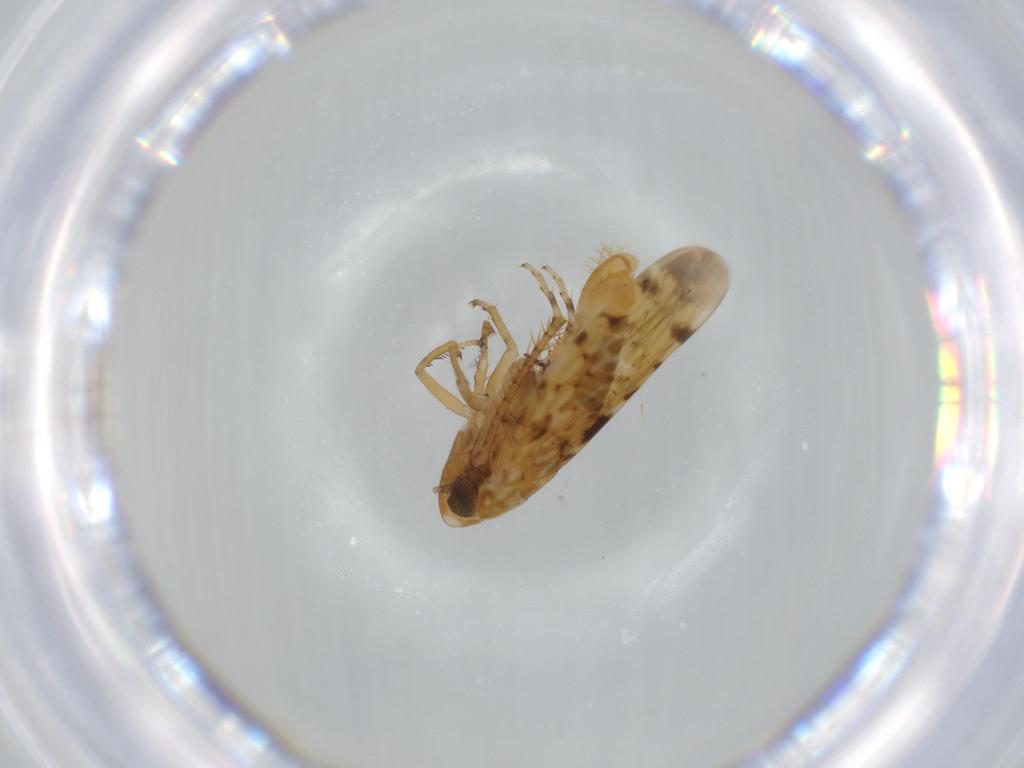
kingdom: Animalia
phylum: Arthropoda
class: Insecta
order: Hemiptera
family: Cicadellidae
